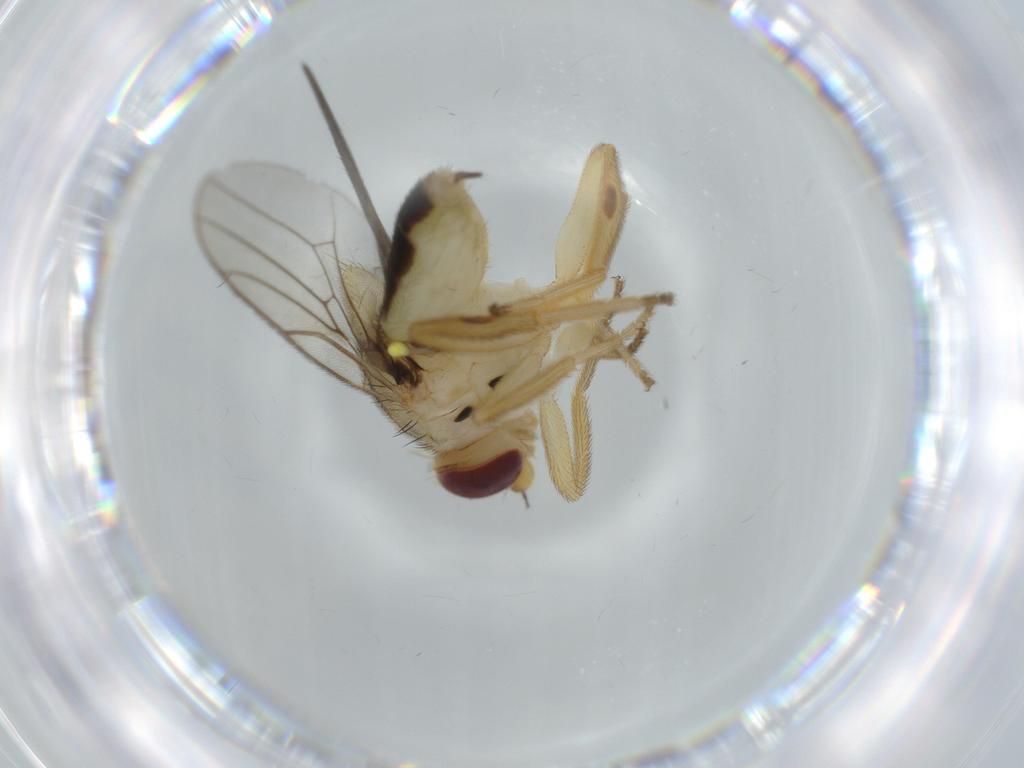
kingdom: Animalia
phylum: Arthropoda
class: Insecta
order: Diptera
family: Chloropidae
